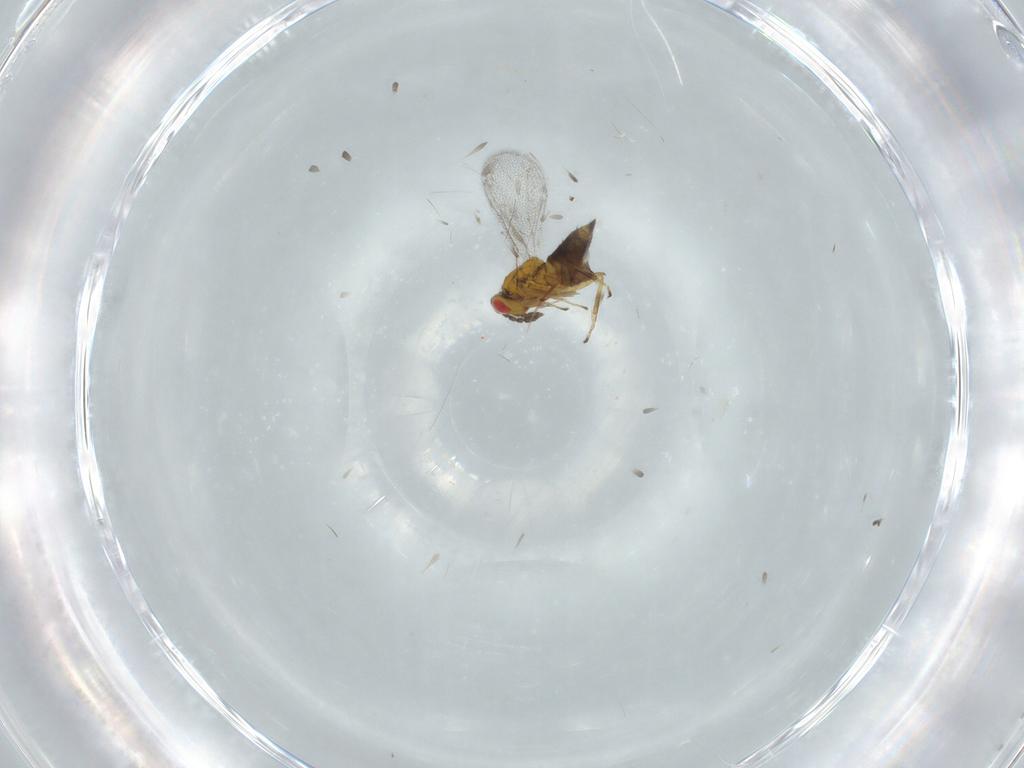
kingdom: Animalia
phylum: Arthropoda
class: Insecta
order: Hymenoptera
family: Eulophidae
